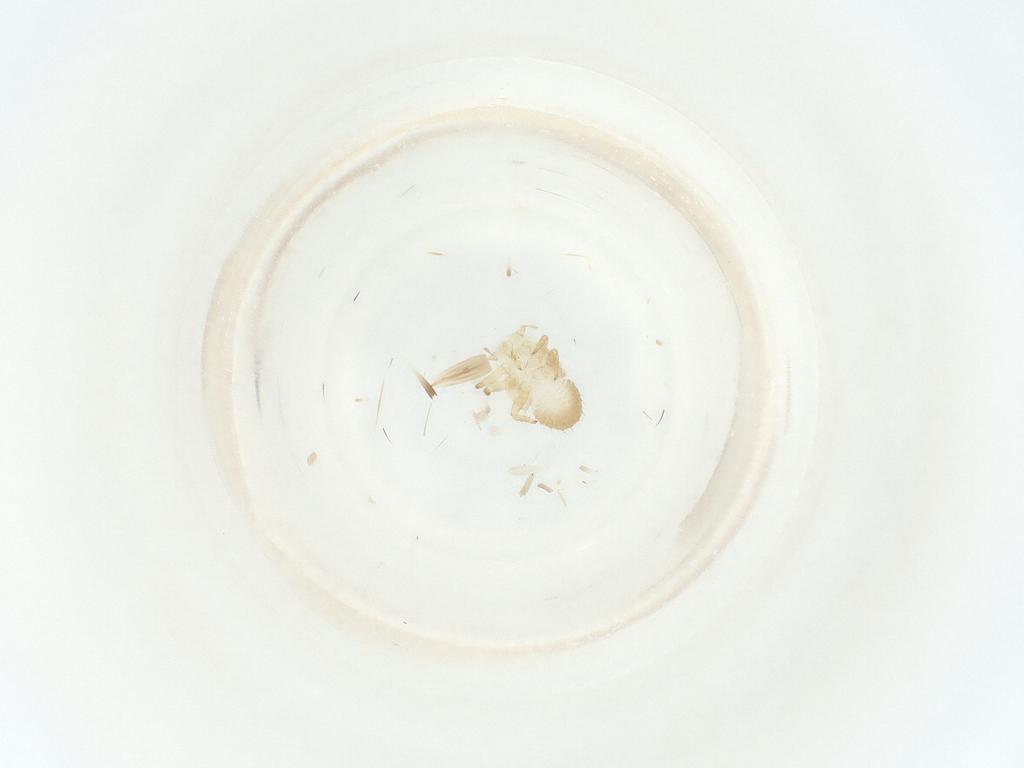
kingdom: Animalia
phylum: Arthropoda
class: Insecta
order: Hemiptera
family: Psyllidae
